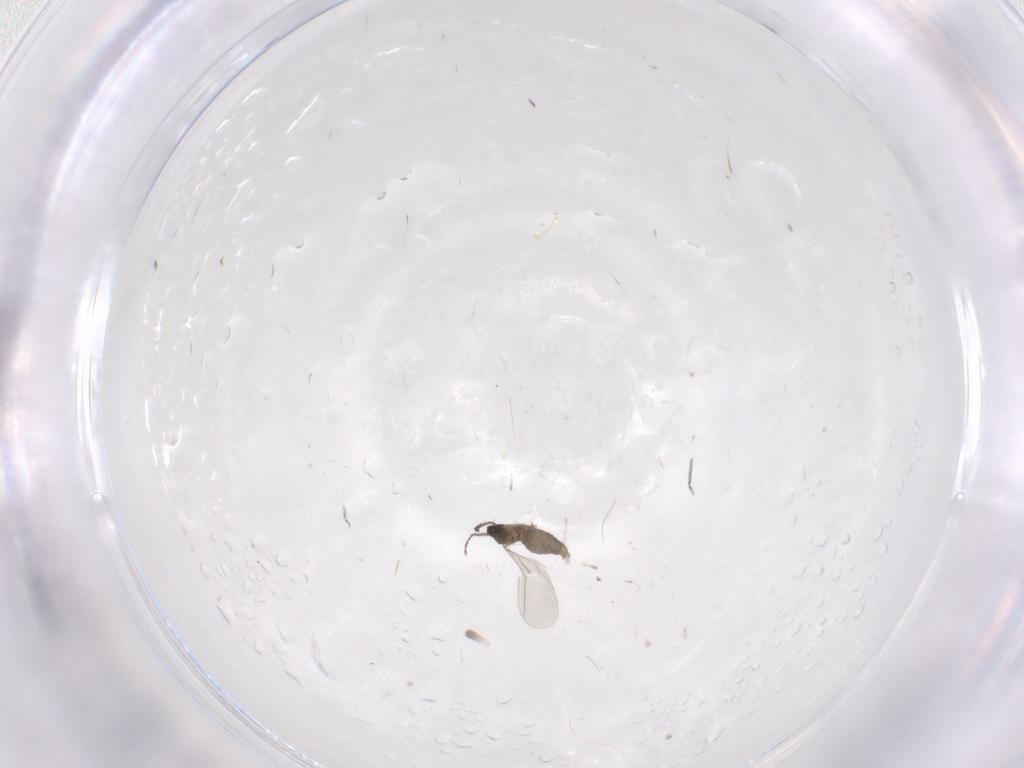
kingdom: Animalia
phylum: Arthropoda
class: Insecta
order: Diptera
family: Cecidomyiidae
